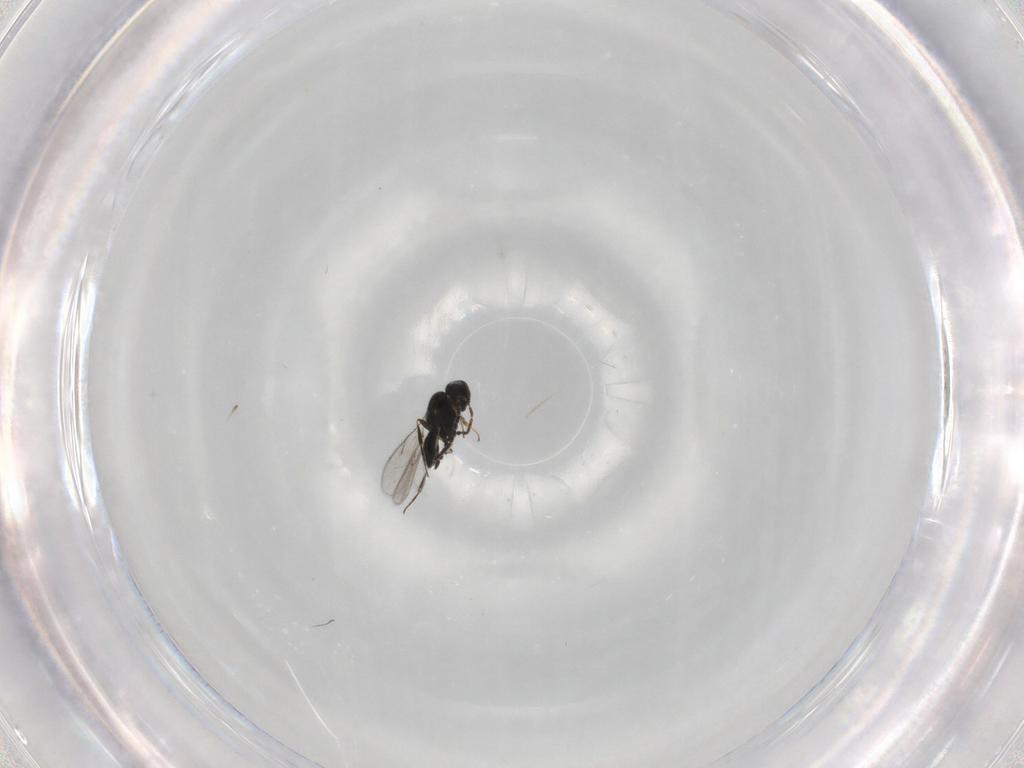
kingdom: Animalia
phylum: Arthropoda
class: Insecta
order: Hymenoptera
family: Scelionidae
